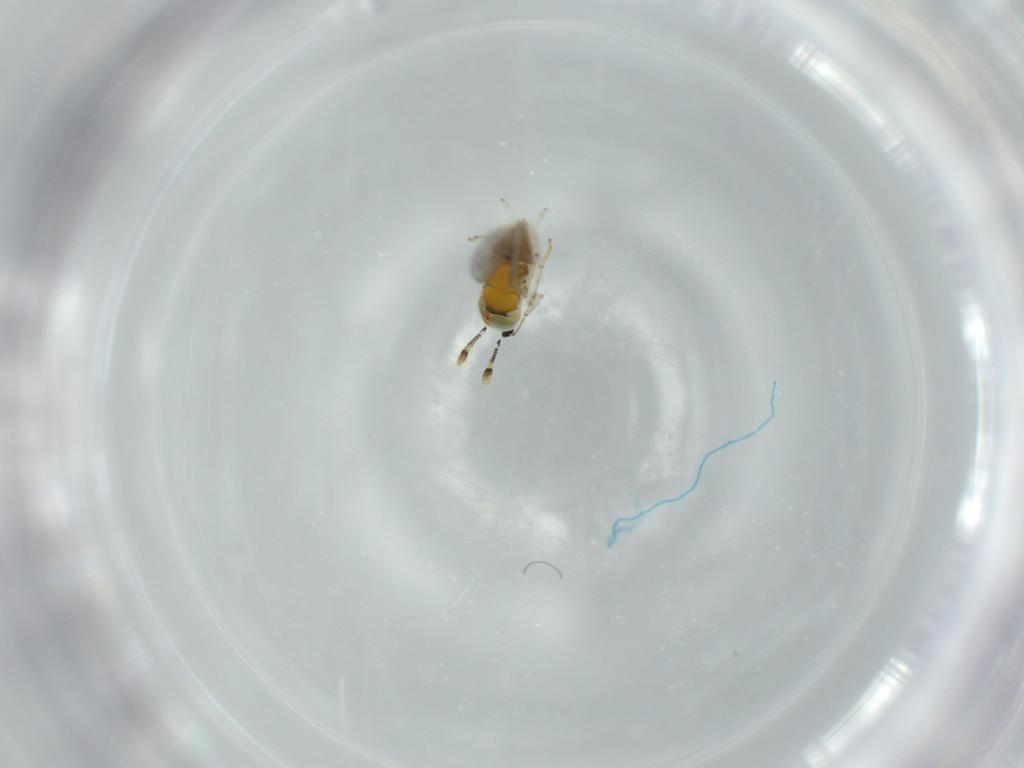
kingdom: Animalia
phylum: Arthropoda
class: Insecta
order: Hymenoptera
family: Encyrtidae
